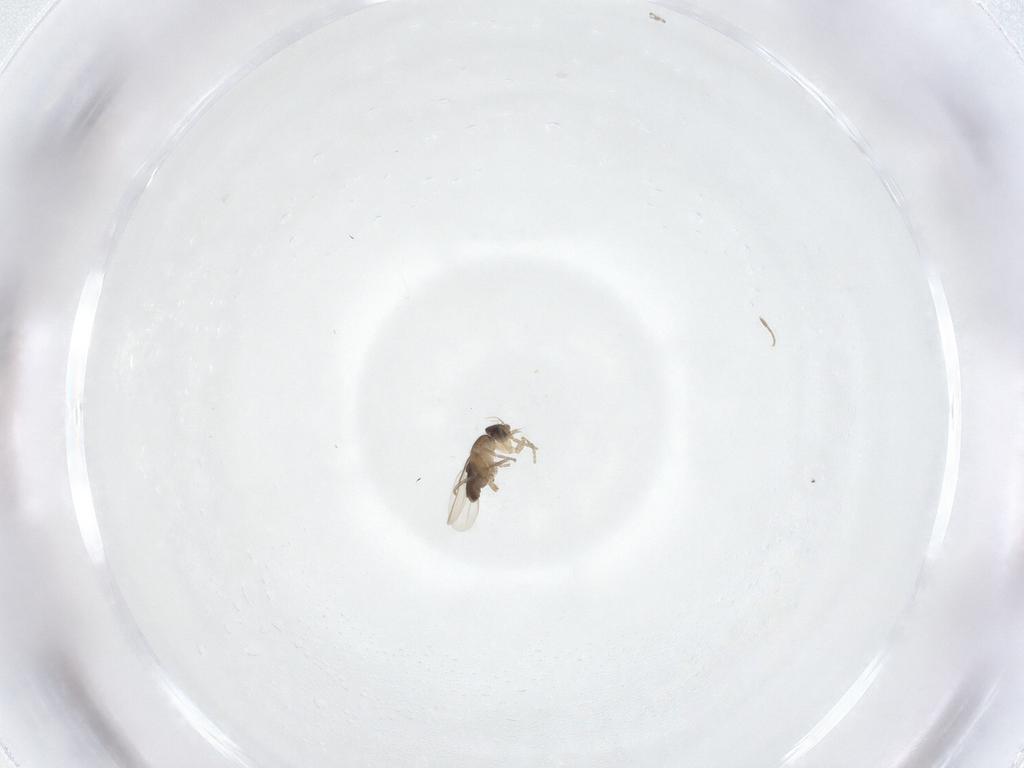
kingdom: Animalia
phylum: Arthropoda
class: Insecta
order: Diptera
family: Phoridae
